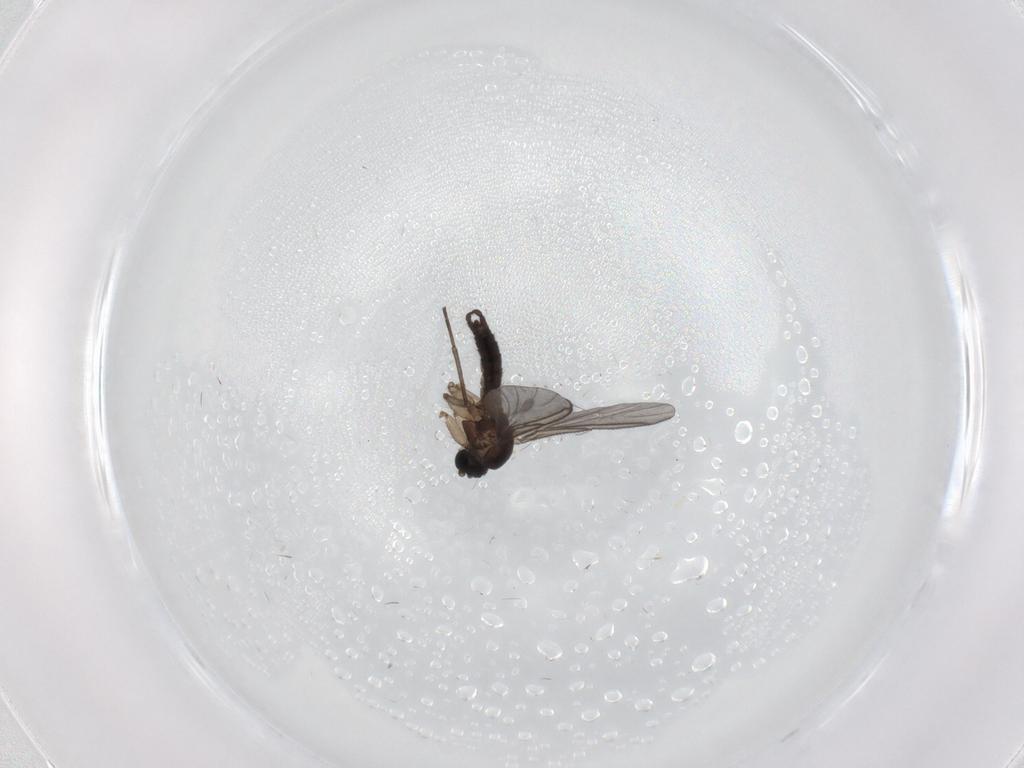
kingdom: Animalia
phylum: Arthropoda
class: Insecta
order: Diptera
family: Sciaridae
